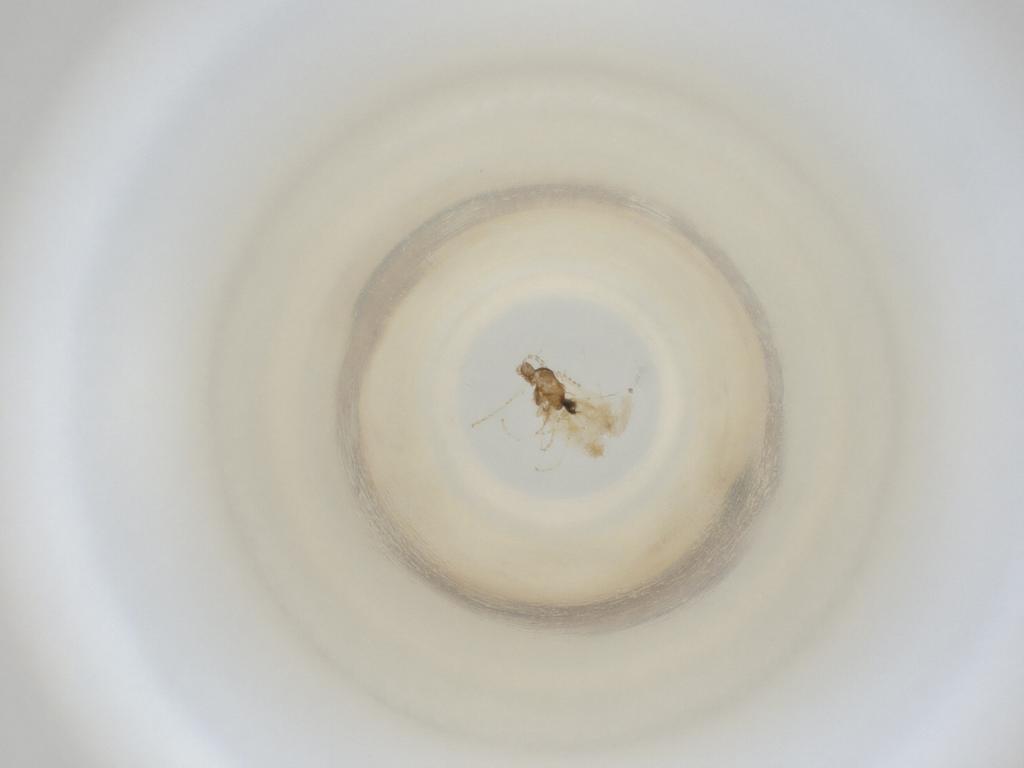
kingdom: Animalia
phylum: Arthropoda
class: Insecta
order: Diptera
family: Cecidomyiidae
